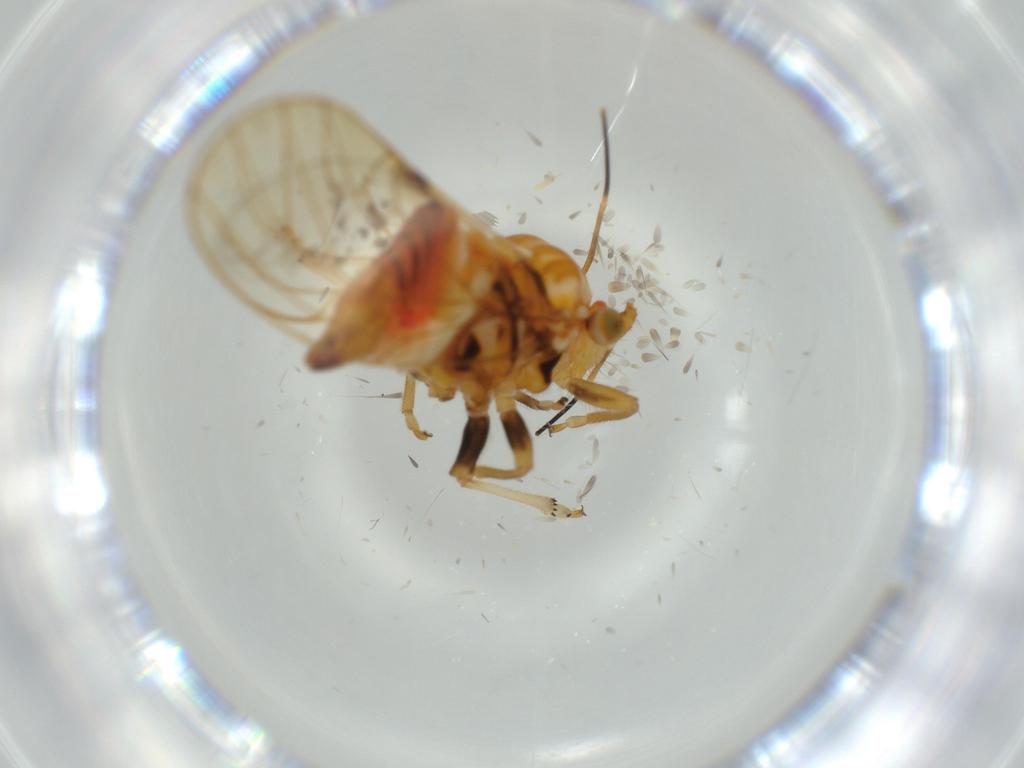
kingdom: Animalia
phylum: Arthropoda
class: Insecta
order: Hemiptera
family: Psyllidae
